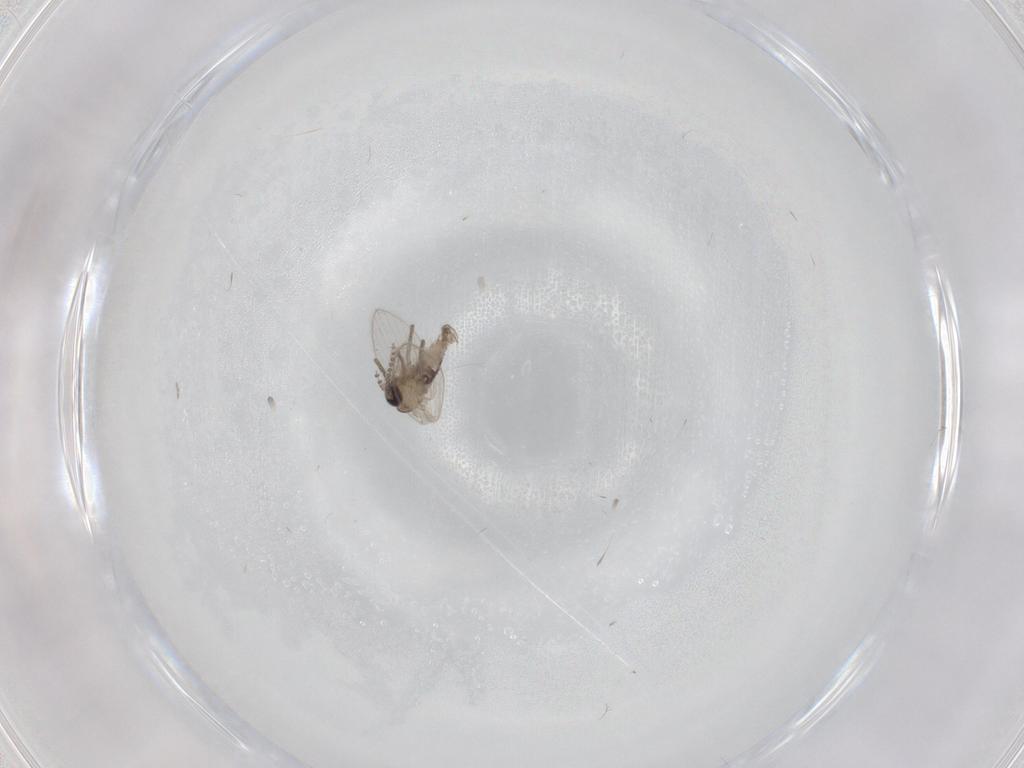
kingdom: Animalia
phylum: Arthropoda
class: Insecta
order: Diptera
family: Psychodidae
